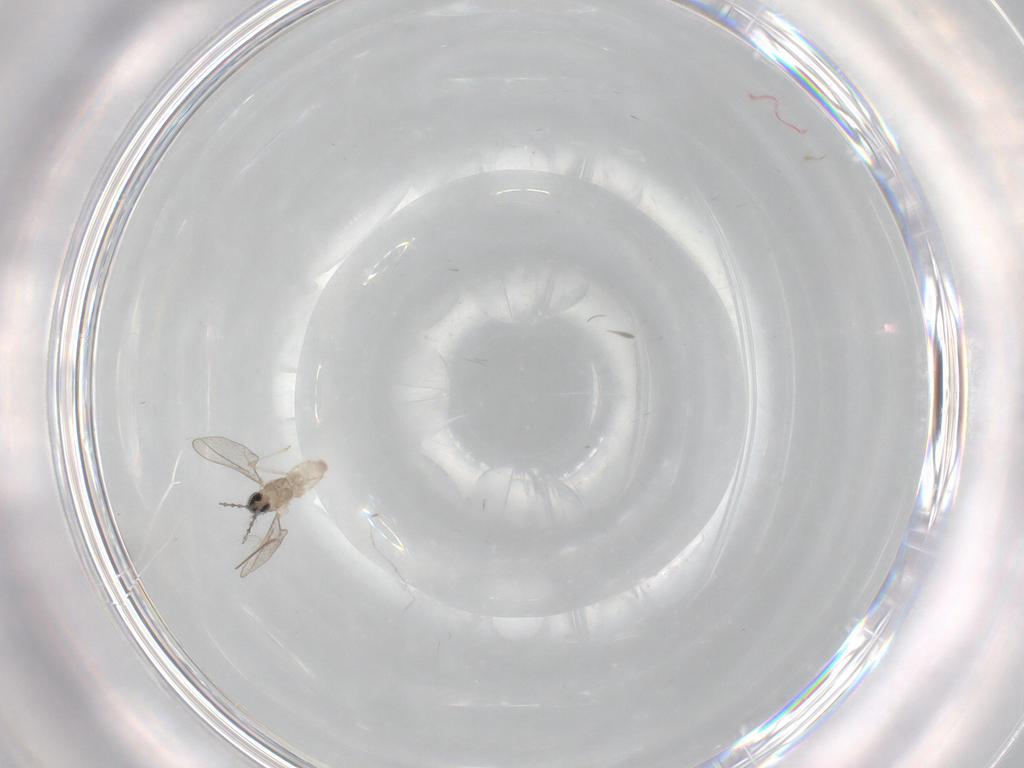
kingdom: Animalia
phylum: Arthropoda
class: Insecta
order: Diptera
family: Cecidomyiidae
